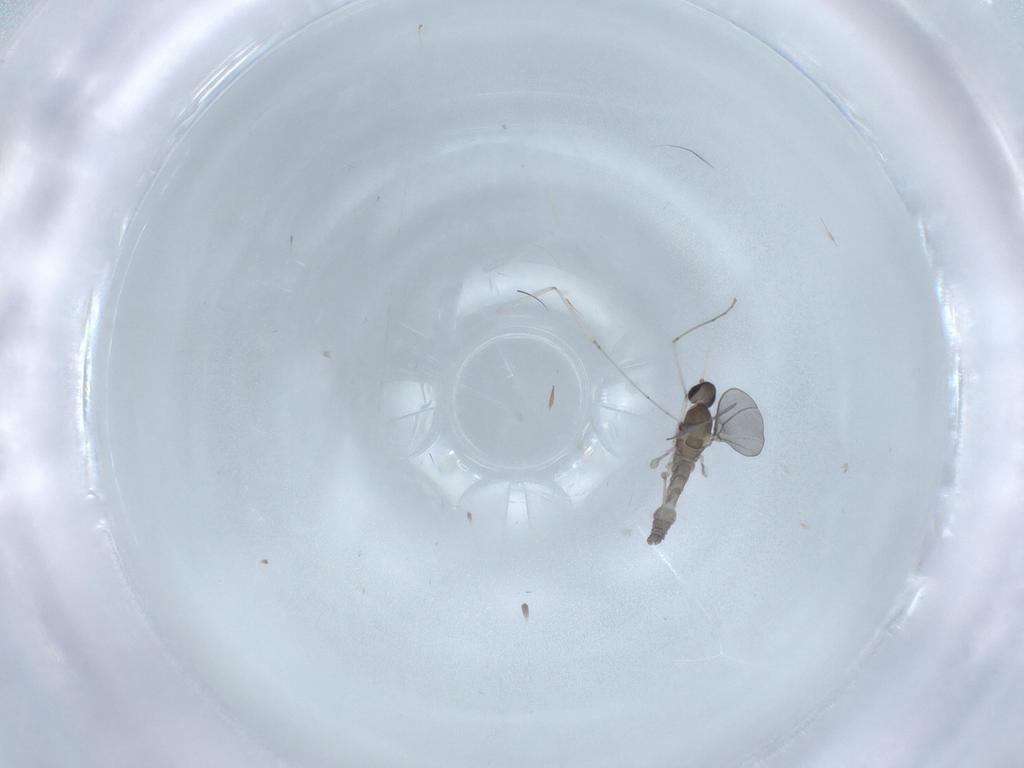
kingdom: Animalia
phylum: Arthropoda
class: Insecta
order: Diptera
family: Cecidomyiidae
